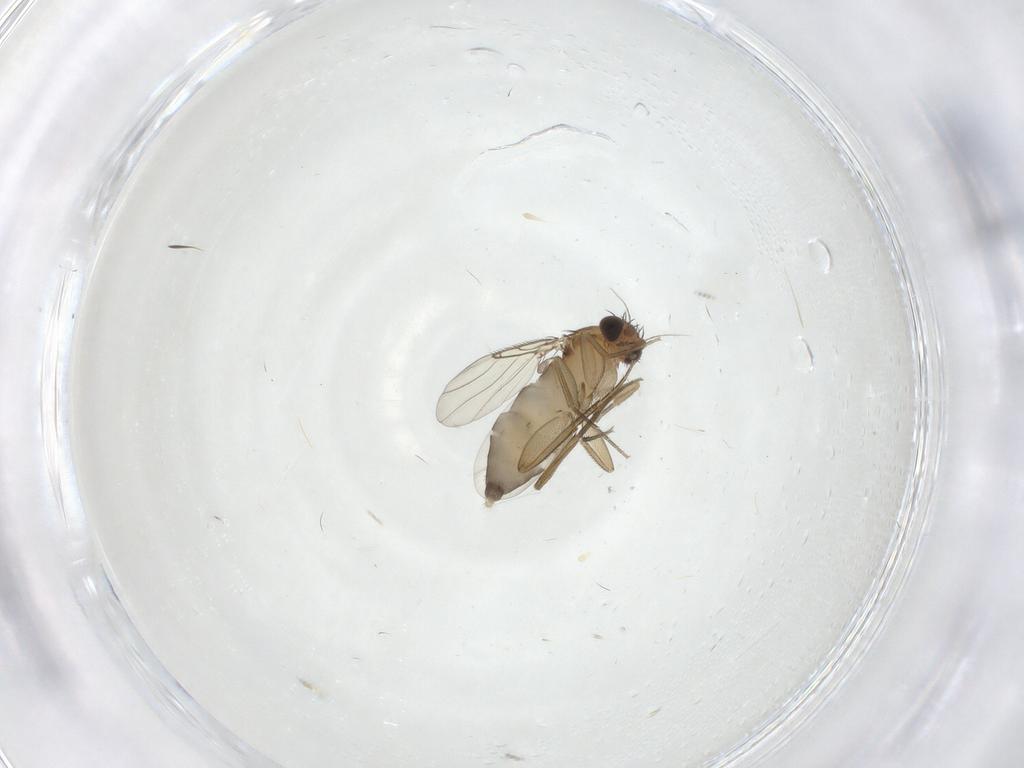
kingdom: Animalia
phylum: Arthropoda
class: Insecta
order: Diptera
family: Phoridae
